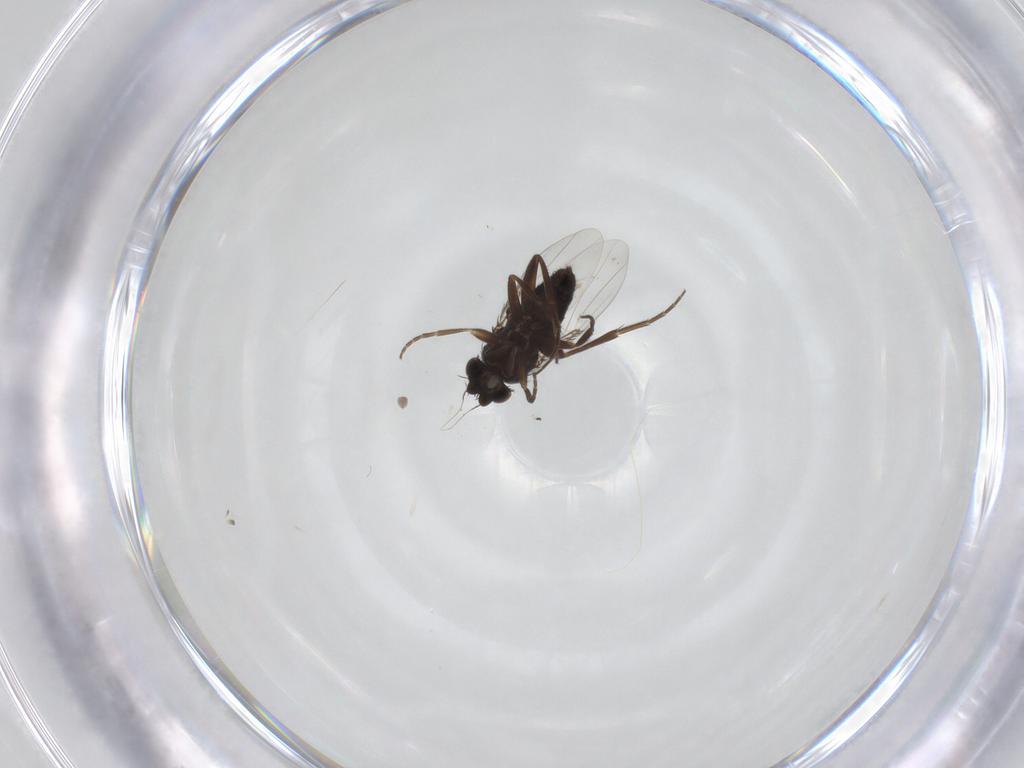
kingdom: Animalia
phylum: Arthropoda
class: Insecta
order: Diptera
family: Phoridae
